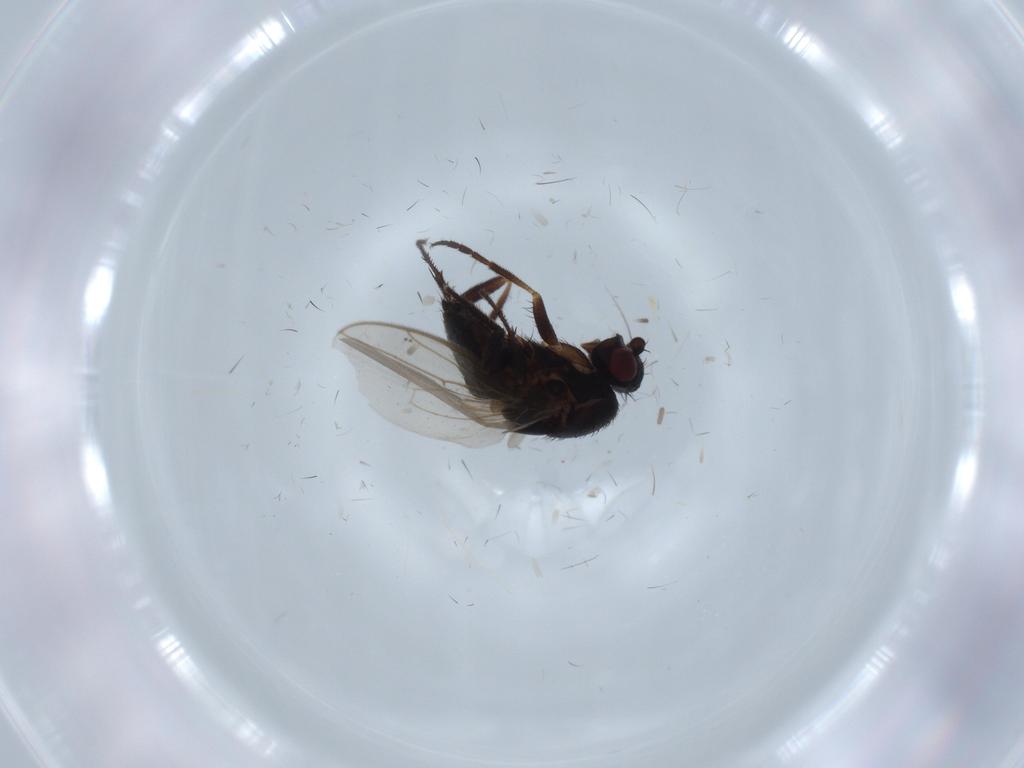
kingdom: Animalia
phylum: Arthropoda
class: Insecta
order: Diptera
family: Sphaeroceridae
